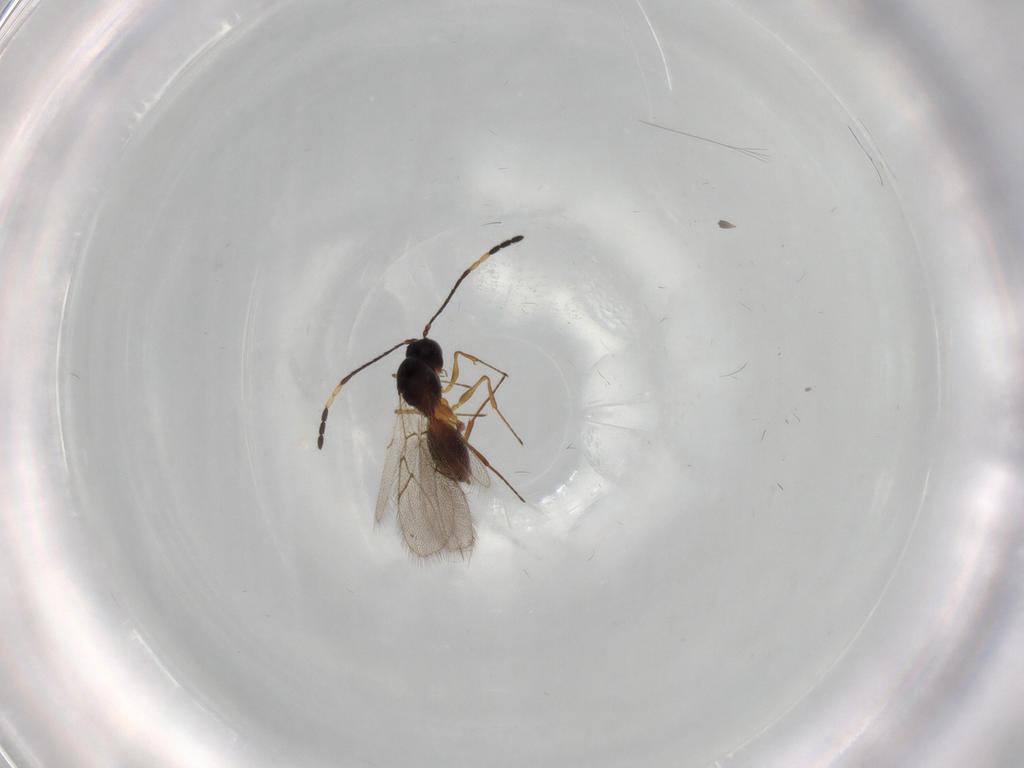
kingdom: Animalia
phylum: Arthropoda
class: Insecta
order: Hymenoptera
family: Figitidae
